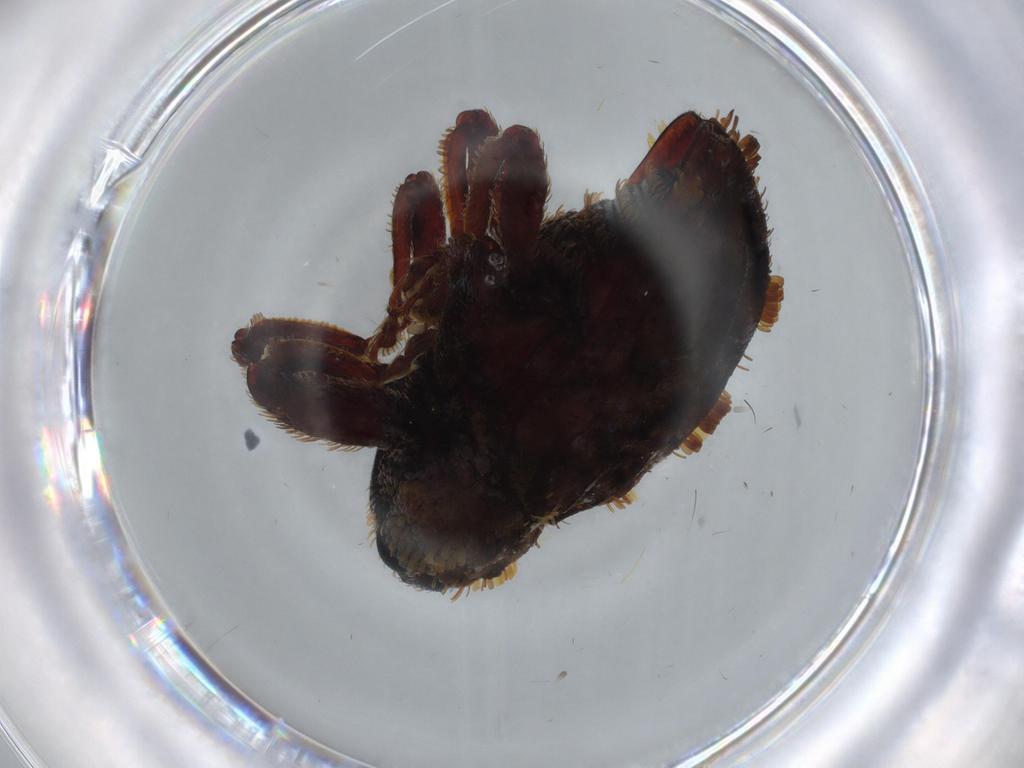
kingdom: Animalia
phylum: Arthropoda
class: Insecta
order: Coleoptera
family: Chrysomelidae
